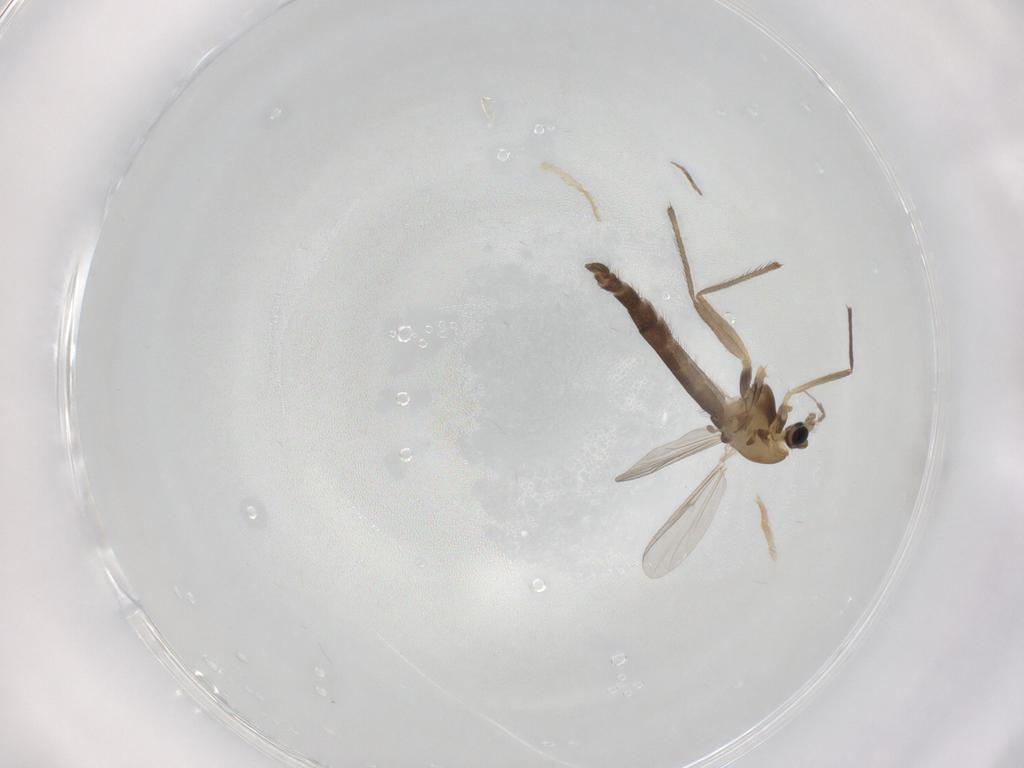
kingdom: Animalia
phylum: Arthropoda
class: Insecta
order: Diptera
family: Chironomidae
